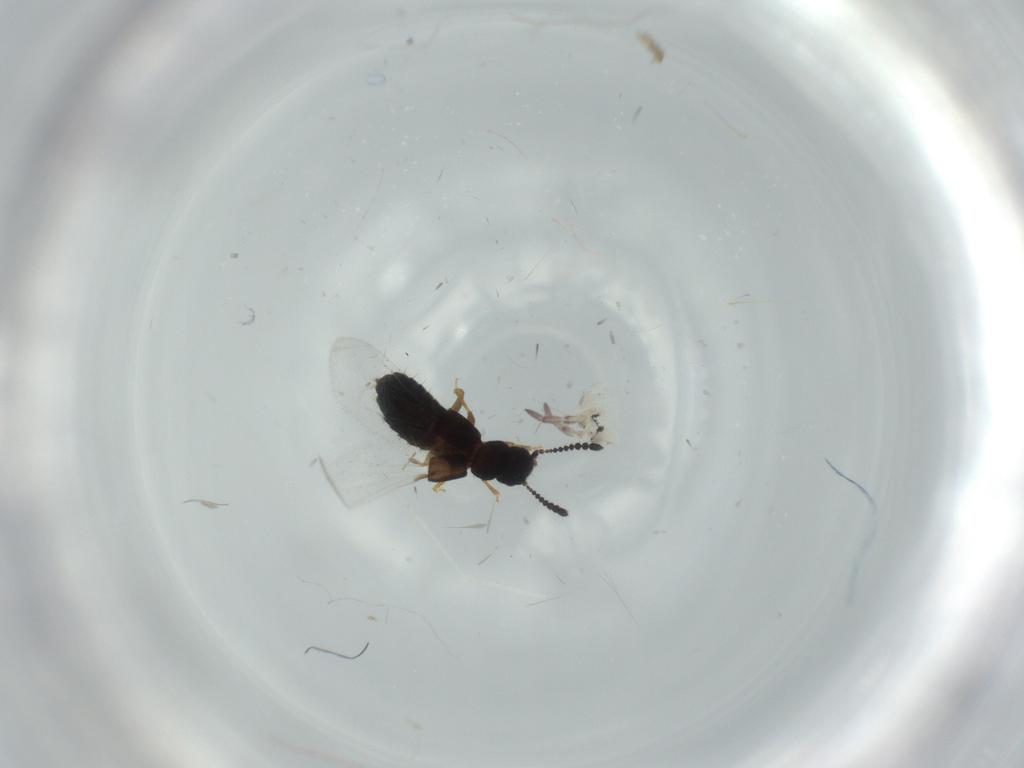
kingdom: Animalia
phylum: Arthropoda
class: Insecta
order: Coleoptera
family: Staphylinidae
